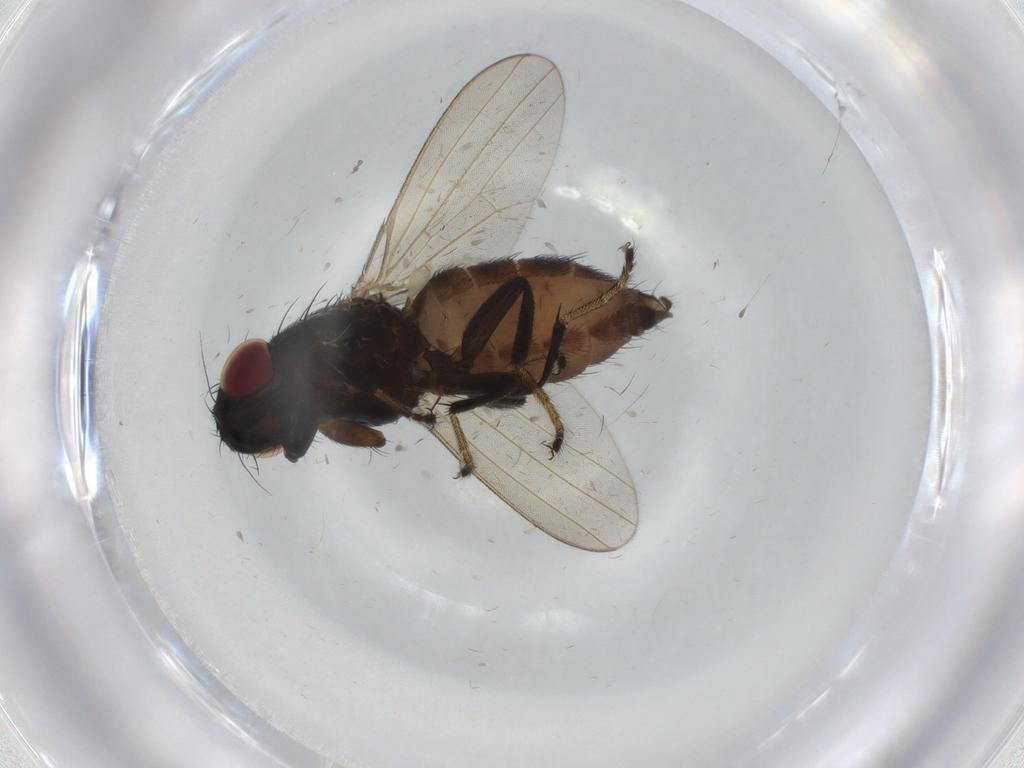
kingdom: Animalia
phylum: Arthropoda
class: Insecta
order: Diptera
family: Milichiidae
